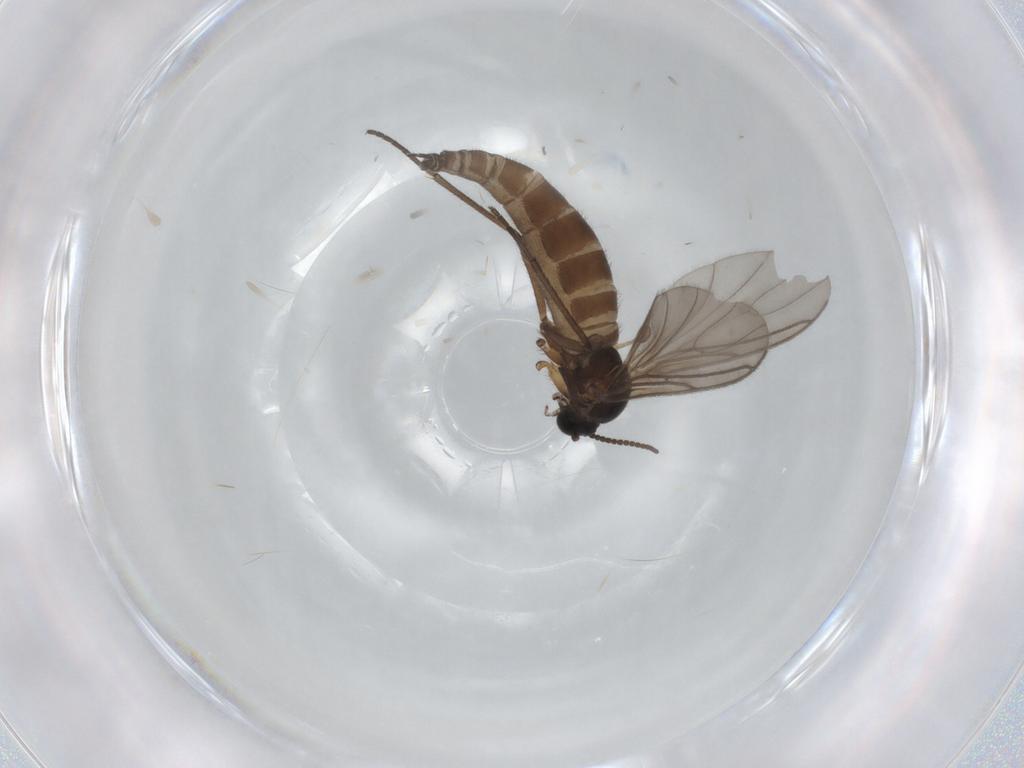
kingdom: Animalia
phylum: Arthropoda
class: Insecta
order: Diptera
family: Sciaridae
